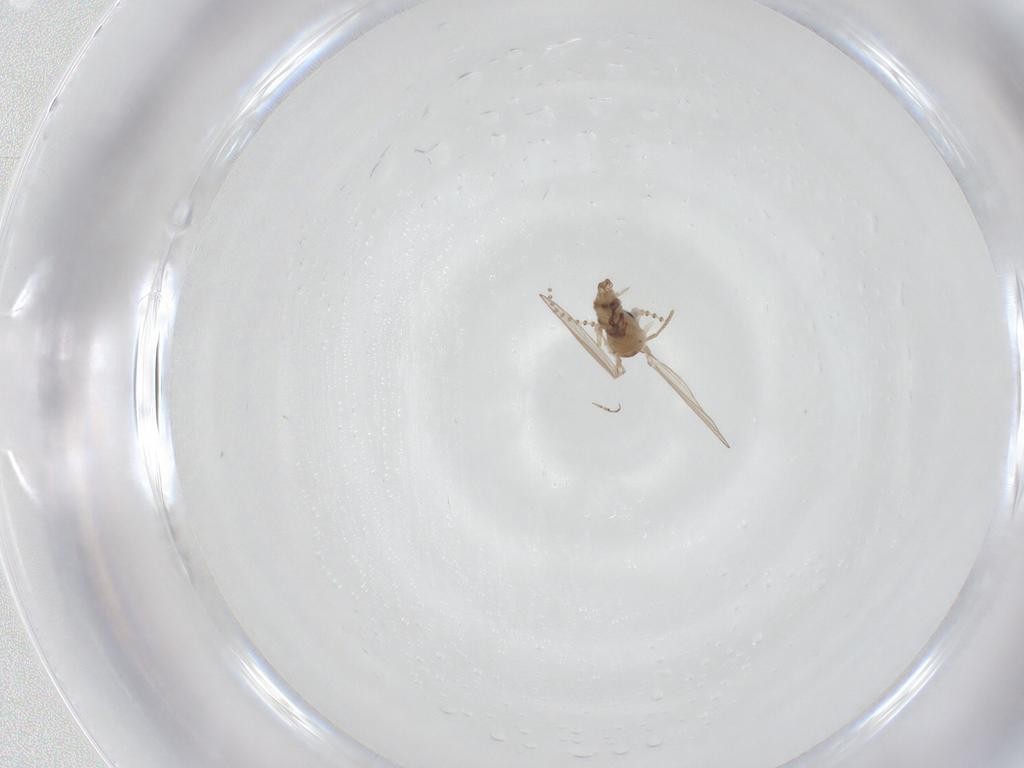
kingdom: Animalia
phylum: Arthropoda
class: Insecta
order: Diptera
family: Psychodidae
